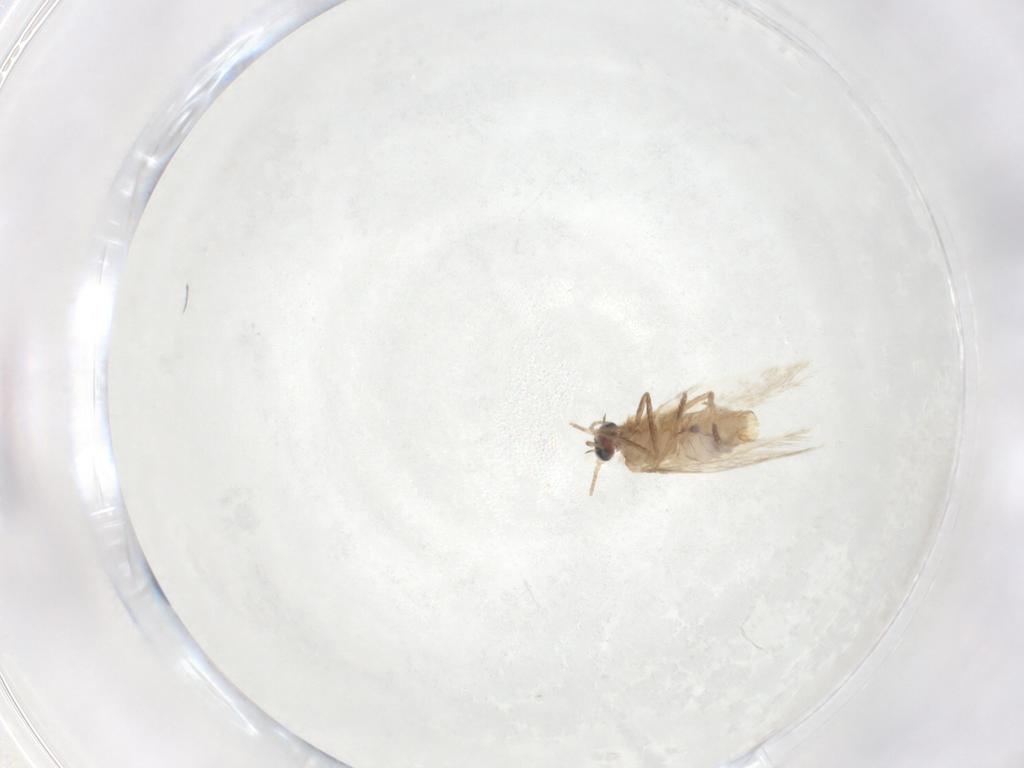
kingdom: Animalia
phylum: Arthropoda
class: Insecta
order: Lepidoptera
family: Nepticulidae
